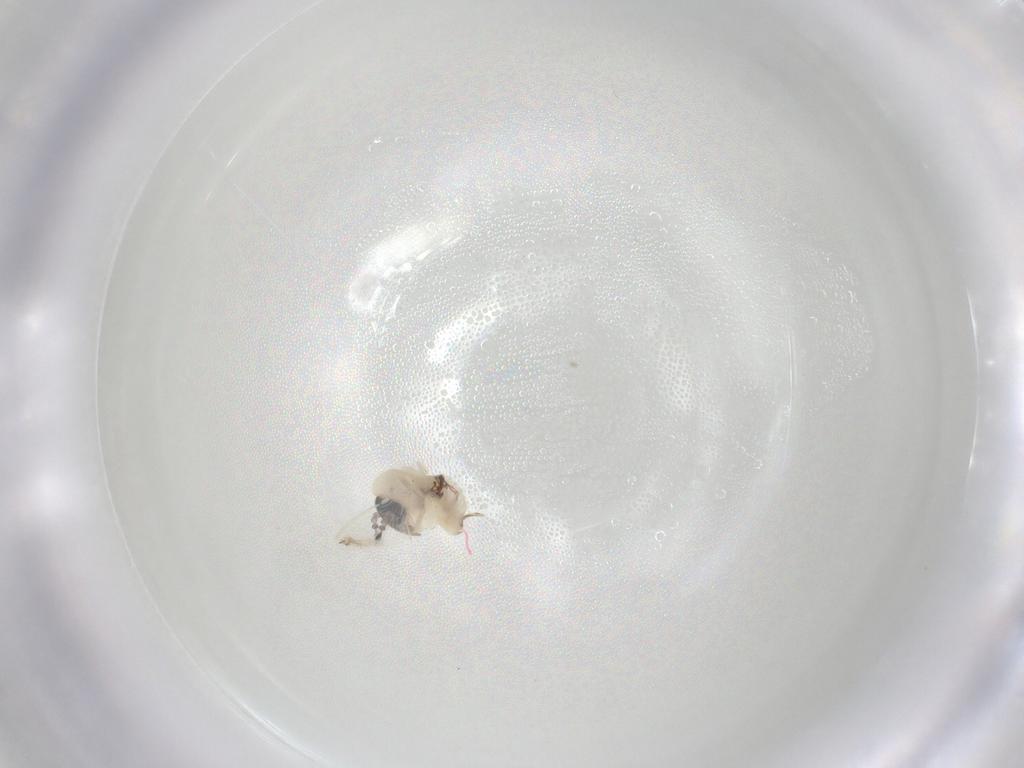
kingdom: Animalia
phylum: Arthropoda
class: Insecta
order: Diptera
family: Psychodidae
